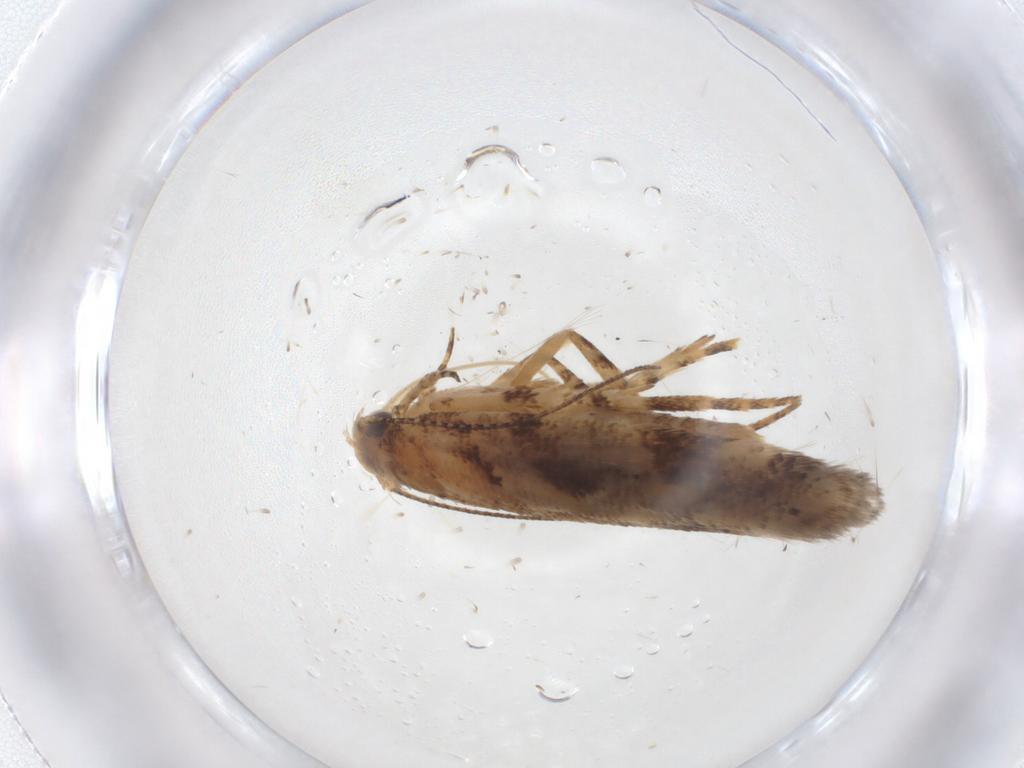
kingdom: Animalia
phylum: Arthropoda
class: Insecta
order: Lepidoptera
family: Gelechiidae
